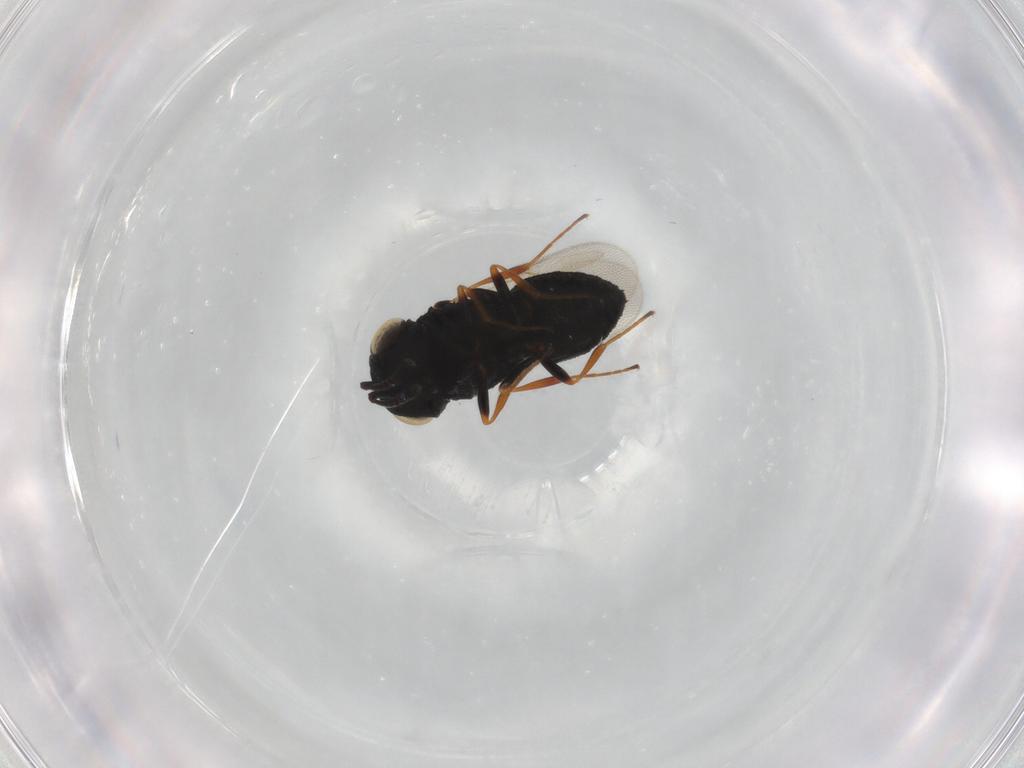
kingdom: Animalia
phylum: Arthropoda
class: Insecta
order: Hymenoptera
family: Scelionidae
